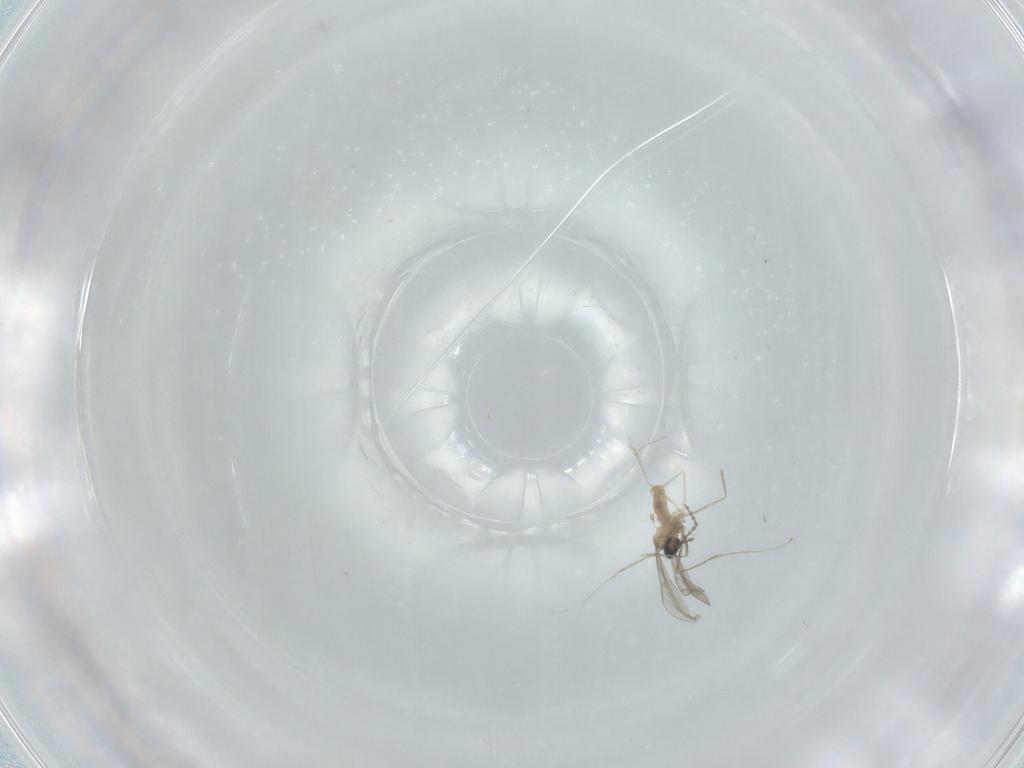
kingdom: Animalia
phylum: Arthropoda
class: Insecta
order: Diptera
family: Cecidomyiidae
